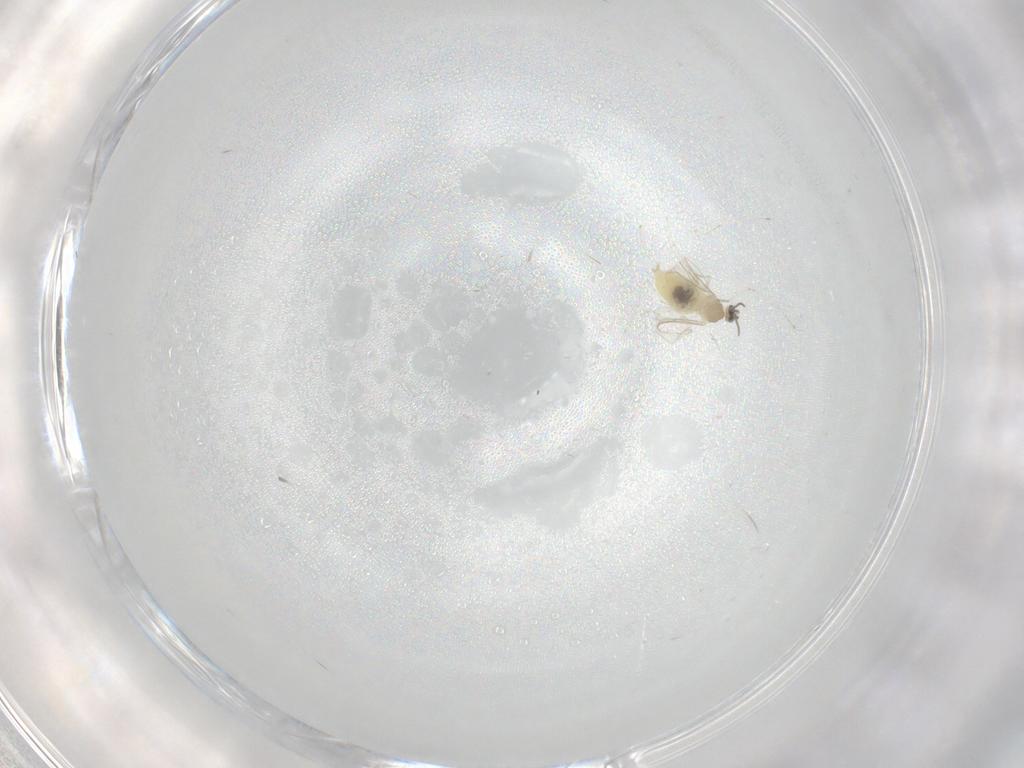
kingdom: Animalia
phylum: Arthropoda
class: Insecta
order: Diptera
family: Cecidomyiidae
